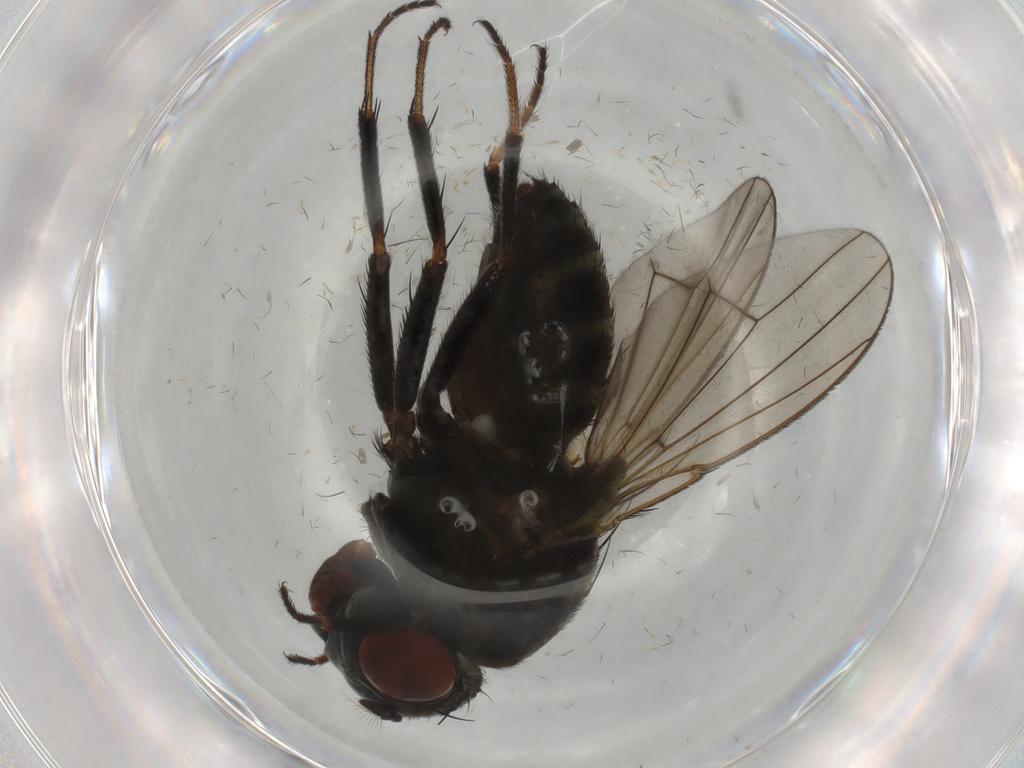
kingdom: Animalia
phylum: Arthropoda
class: Insecta
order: Diptera
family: Ephydridae
